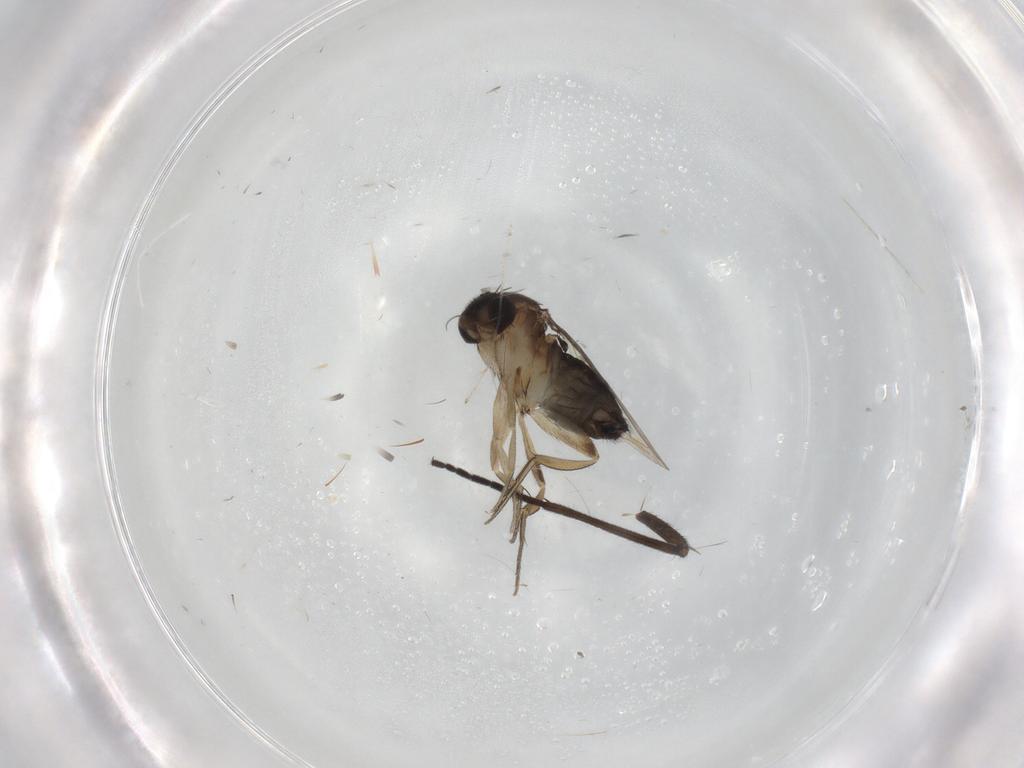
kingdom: Animalia
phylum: Arthropoda
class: Insecta
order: Diptera
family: Phoridae
